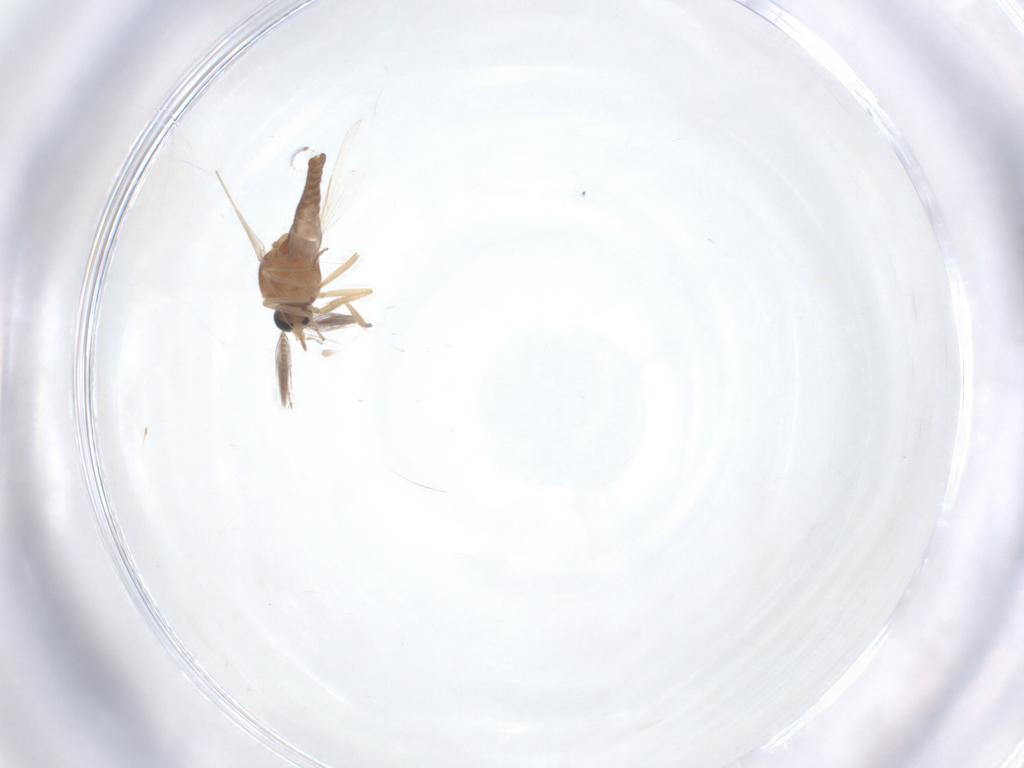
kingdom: Animalia
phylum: Arthropoda
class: Insecta
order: Diptera
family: Ceratopogonidae
